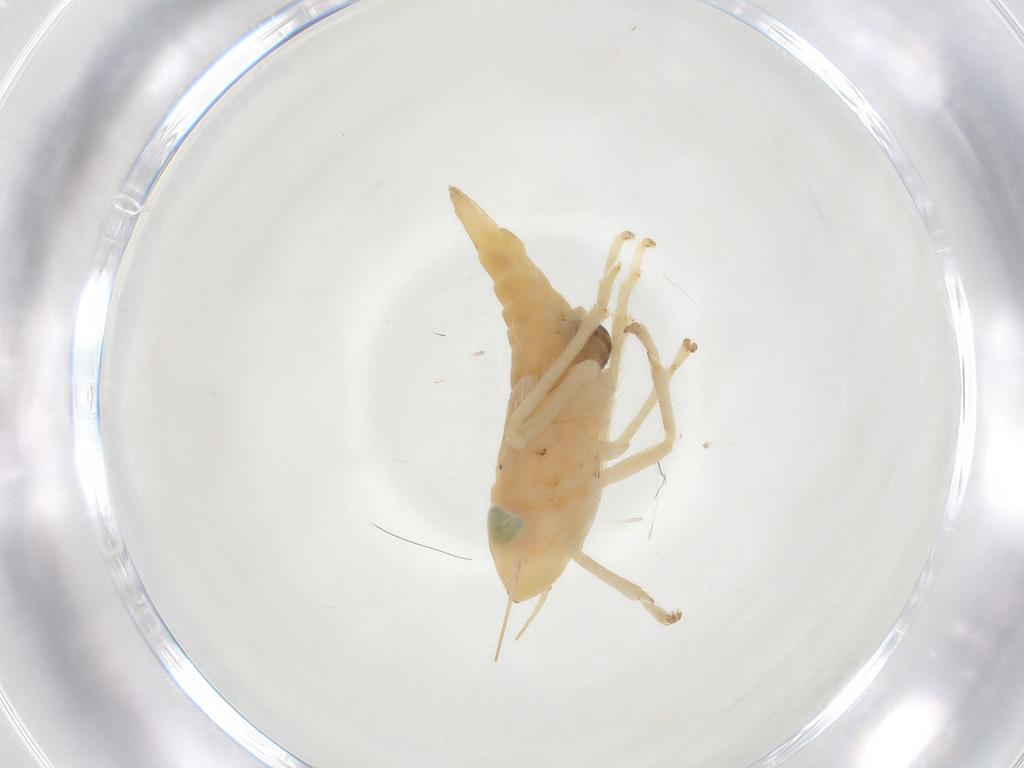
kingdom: Animalia
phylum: Arthropoda
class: Insecta
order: Hemiptera
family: Cicadellidae
